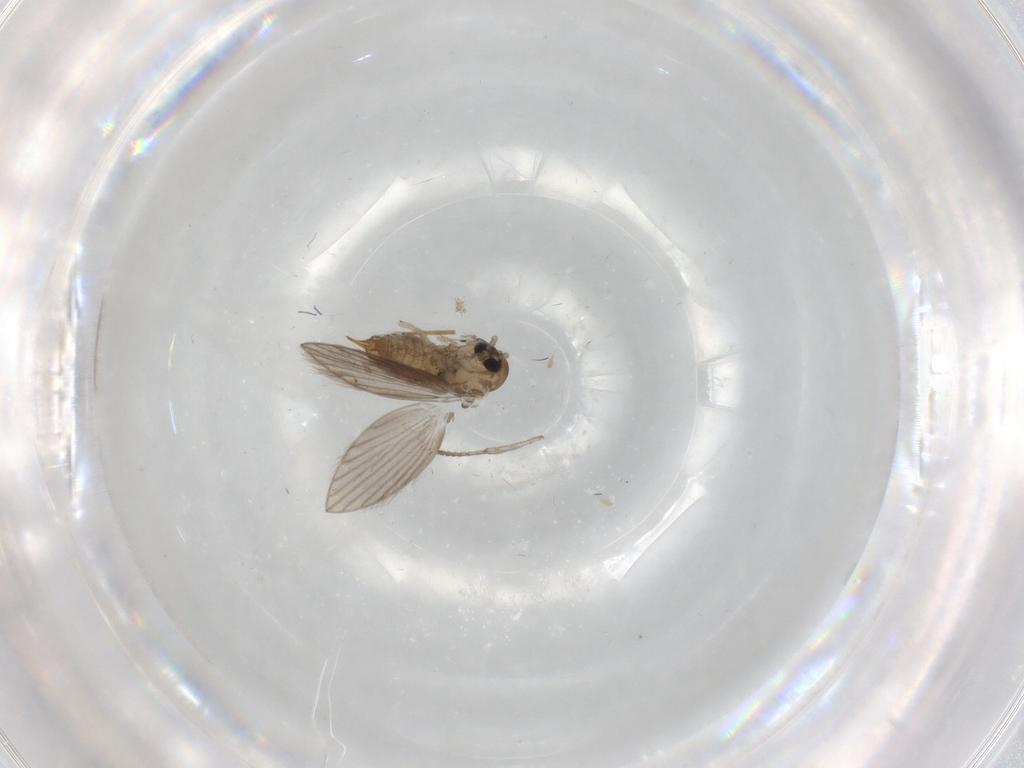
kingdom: Animalia
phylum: Arthropoda
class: Insecta
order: Diptera
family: Psychodidae
